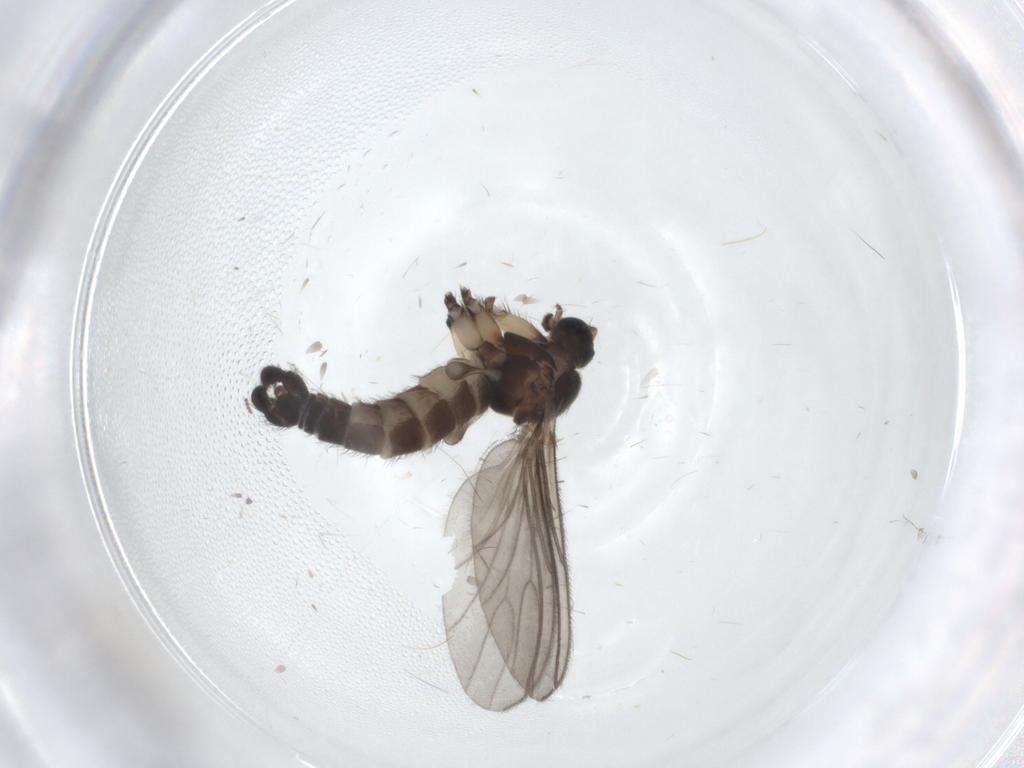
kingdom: Animalia
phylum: Arthropoda
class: Insecta
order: Diptera
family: Sciaridae
